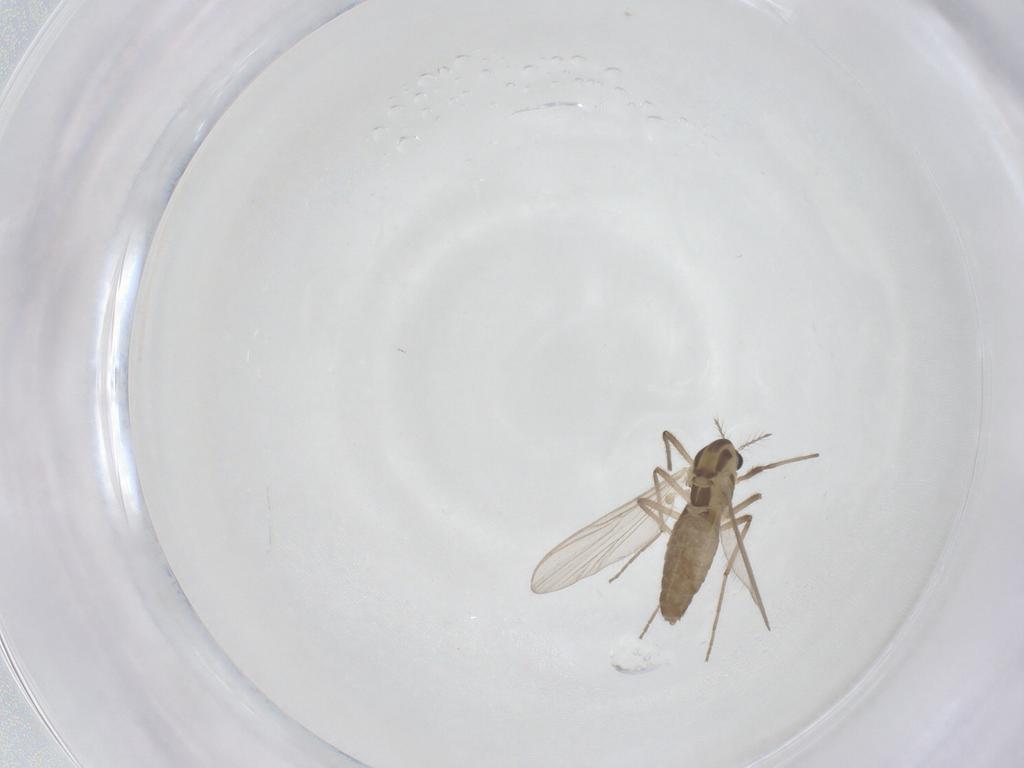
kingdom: Animalia
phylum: Arthropoda
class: Insecta
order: Diptera
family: Chironomidae
